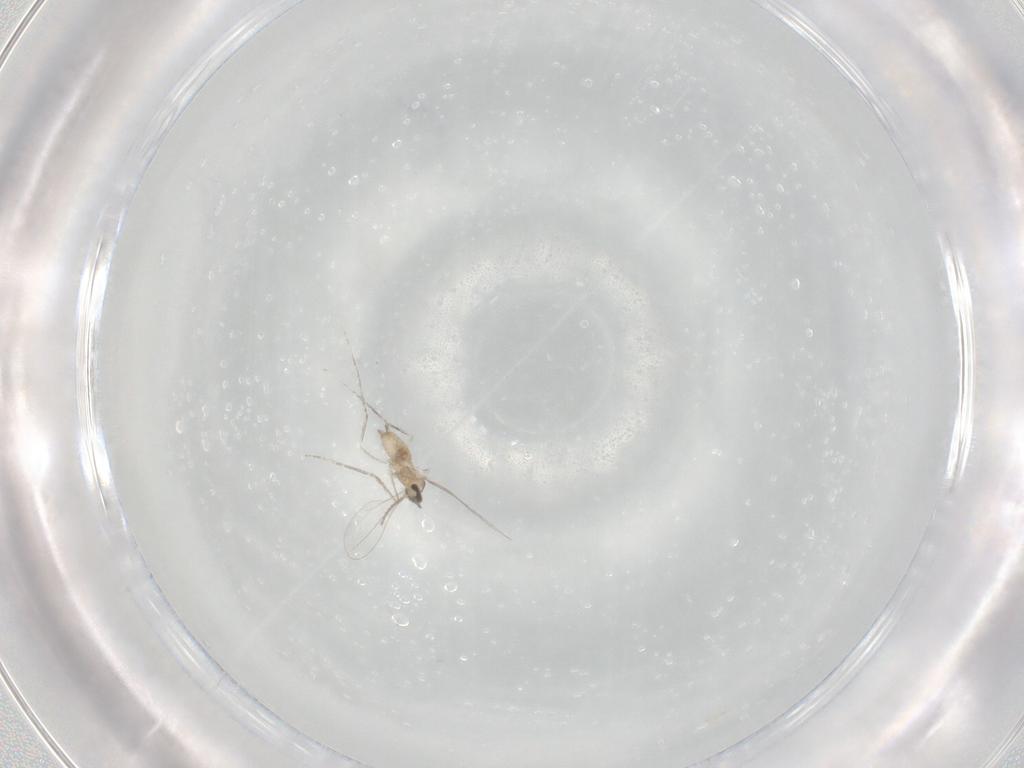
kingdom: Animalia
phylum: Arthropoda
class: Insecta
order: Diptera
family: Cecidomyiidae
